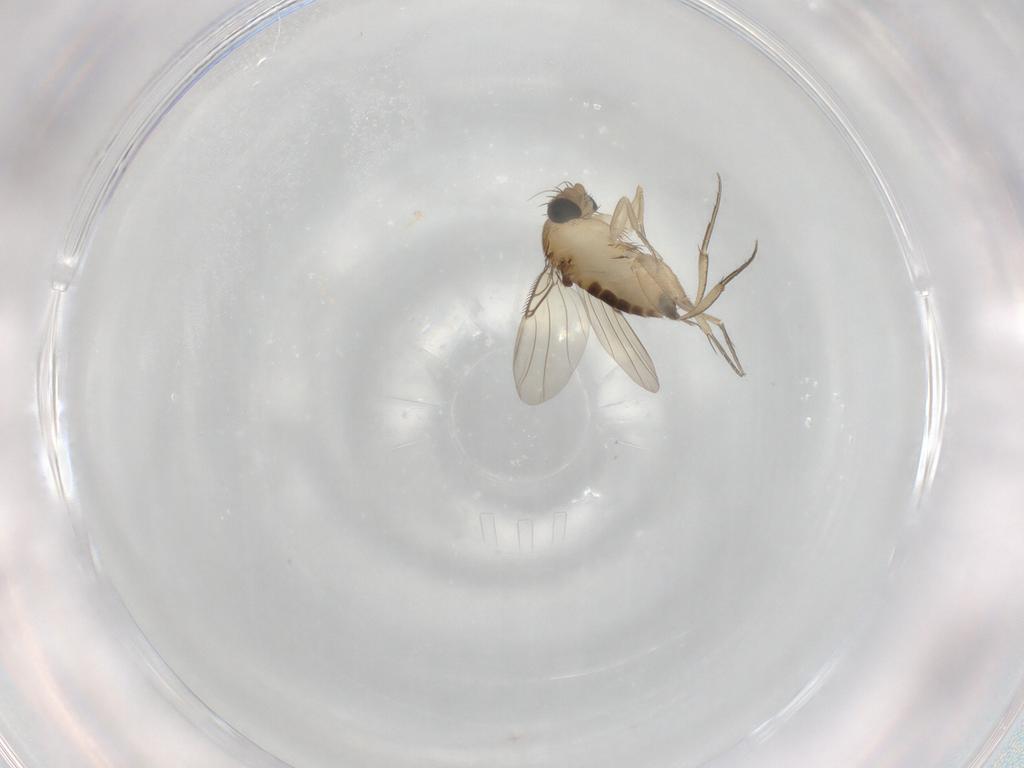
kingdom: Animalia
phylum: Arthropoda
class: Insecta
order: Diptera
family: Phoridae
